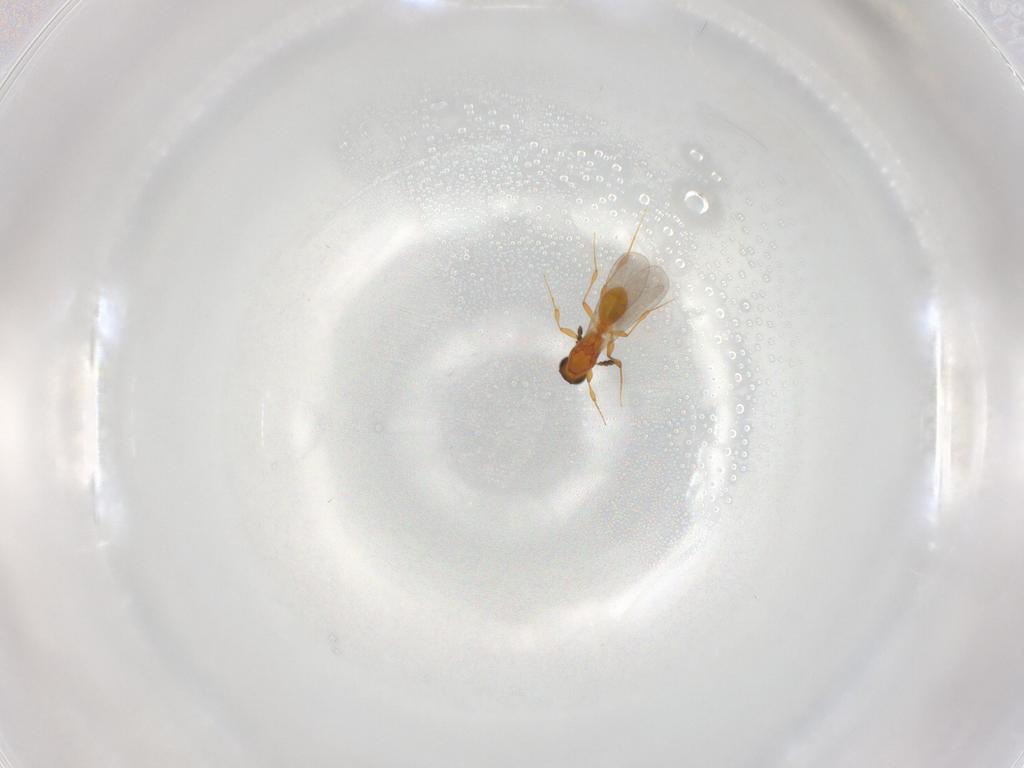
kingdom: Animalia
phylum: Arthropoda
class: Insecta
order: Hymenoptera
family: Platygastridae
